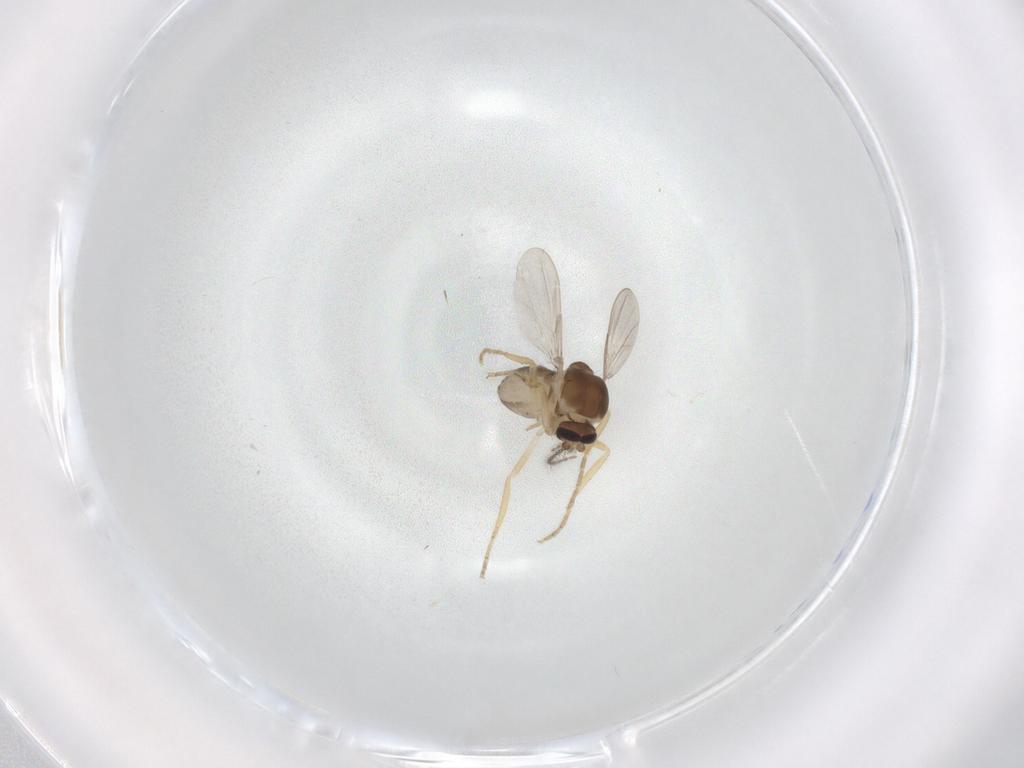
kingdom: Animalia
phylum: Arthropoda
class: Insecta
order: Diptera
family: Ceratopogonidae
